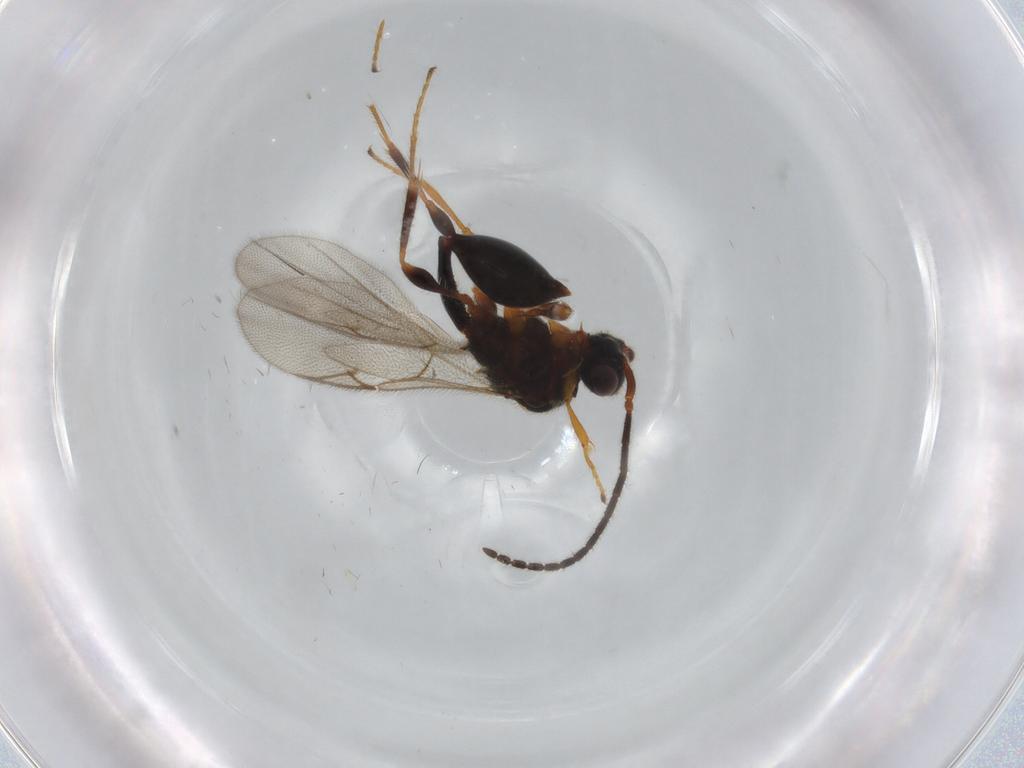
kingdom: Animalia
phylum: Arthropoda
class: Insecta
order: Hymenoptera
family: Diapriidae
